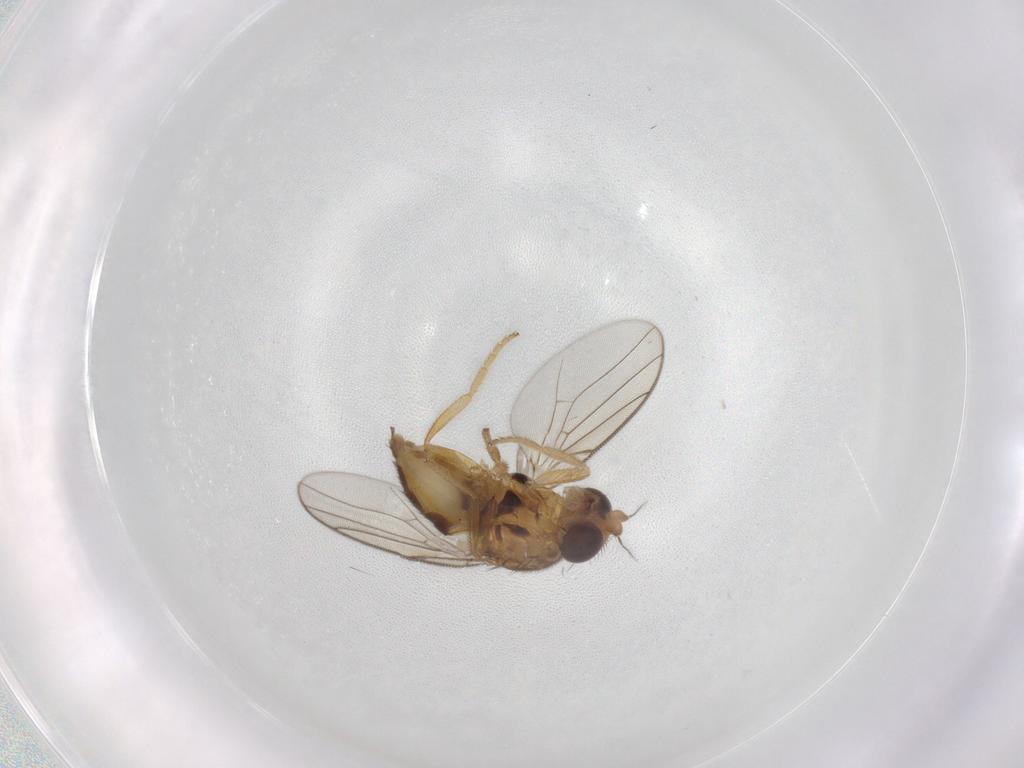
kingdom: Animalia
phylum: Arthropoda
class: Insecta
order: Diptera
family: Chloropidae
